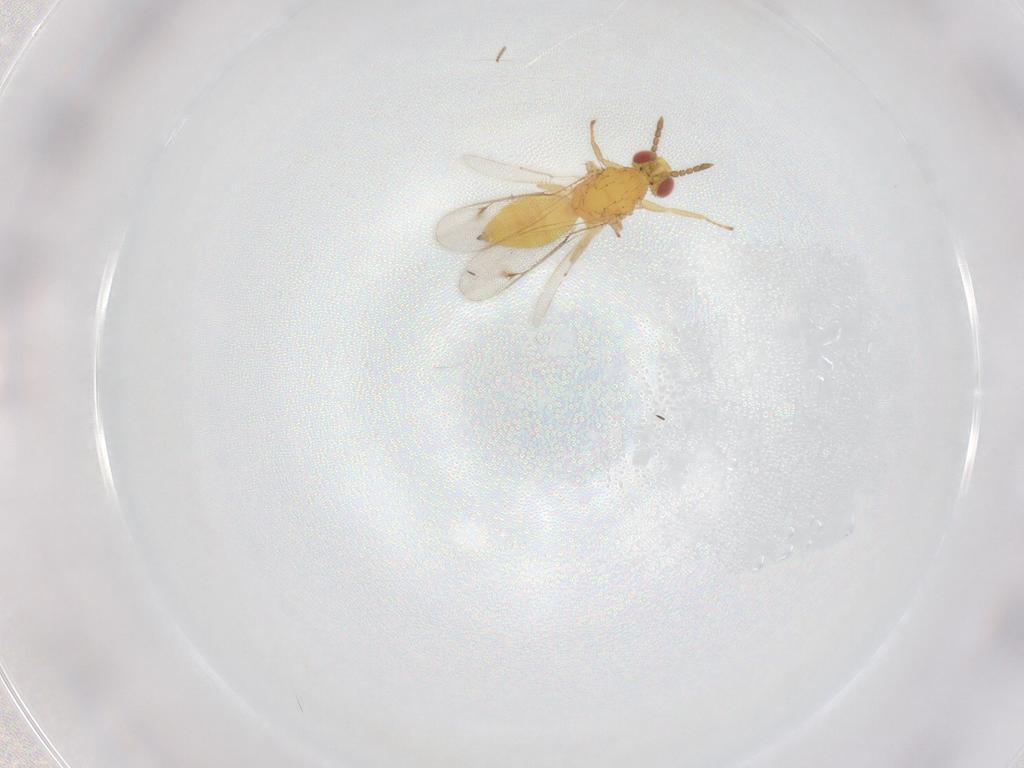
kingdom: Animalia
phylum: Arthropoda
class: Insecta
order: Hymenoptera
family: Eulophidae
